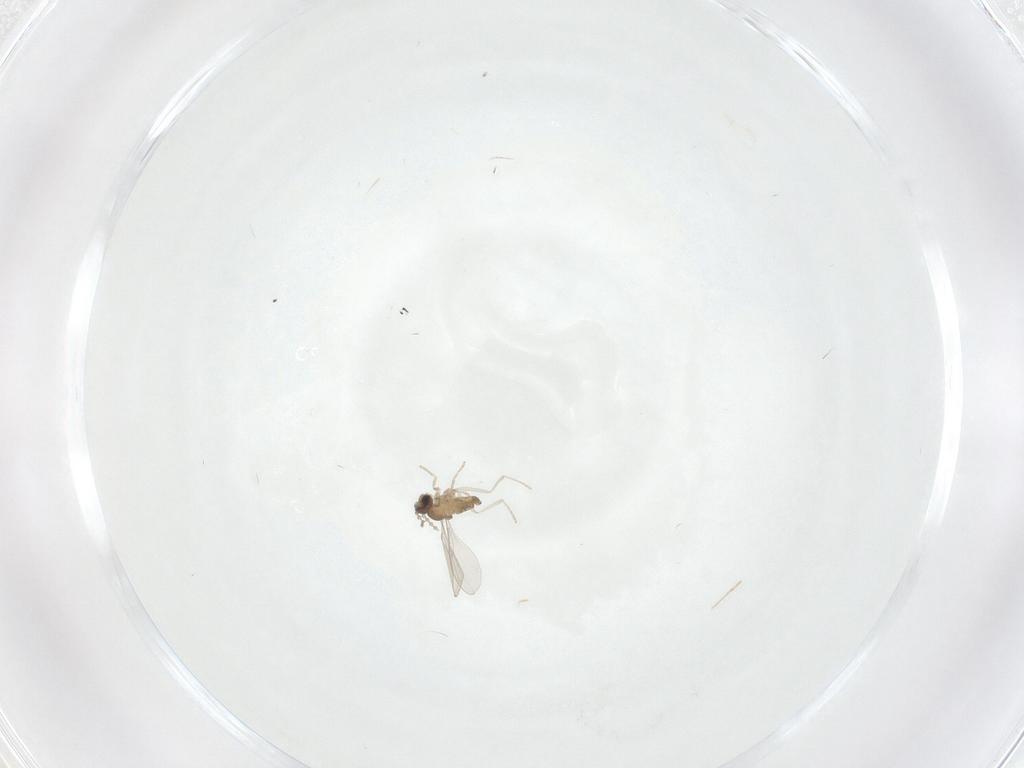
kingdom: Animalia
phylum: Arthropoda
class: Insecta
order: Diptera
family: Cecidomyiidae
